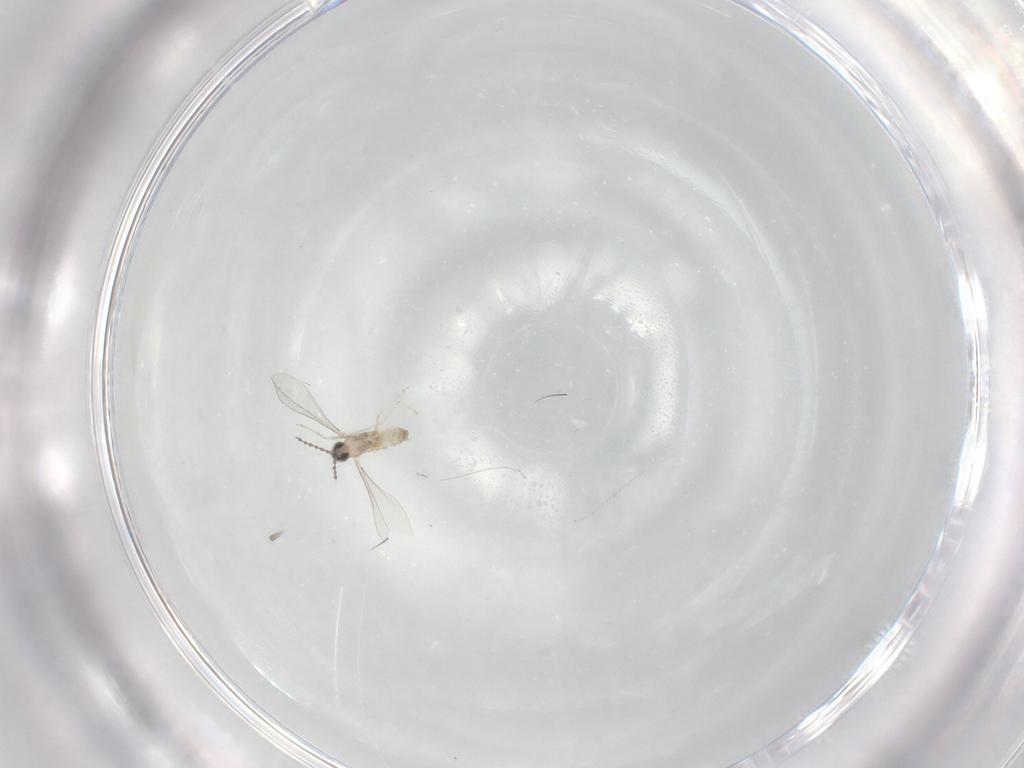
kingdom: Animalia
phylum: Arthropoda
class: Insecta
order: Diptera
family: Cecidomyiidae
